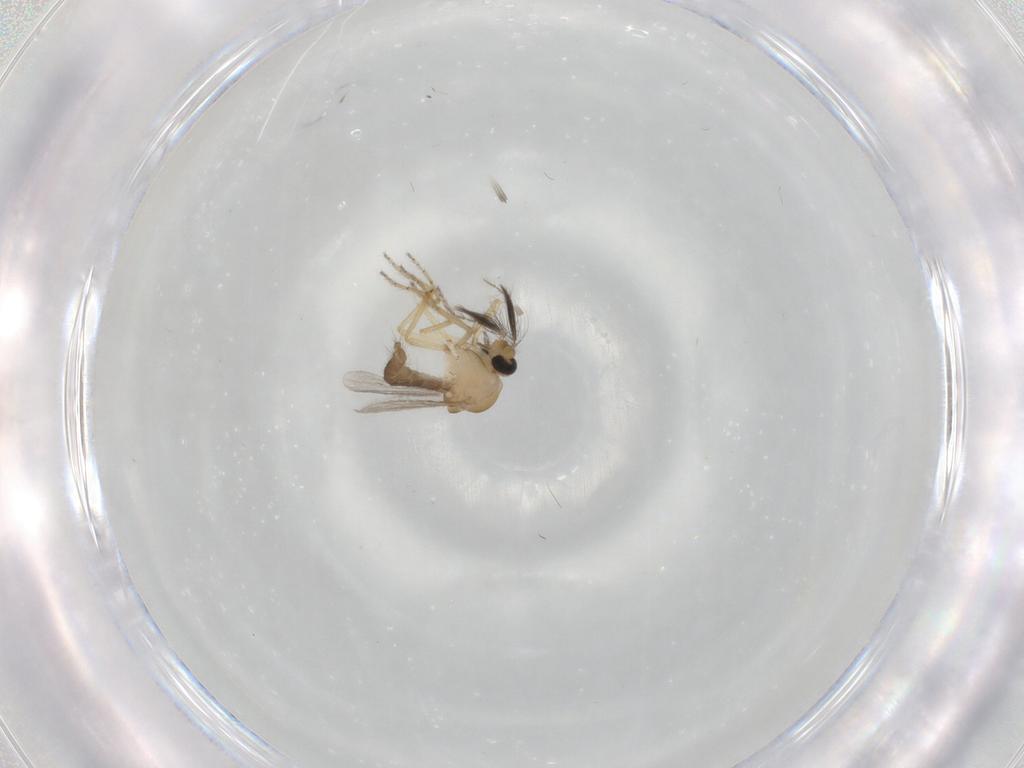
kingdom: Animalia
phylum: Arthropoda
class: Insecta
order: Diptera
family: Ceratopogonidae
